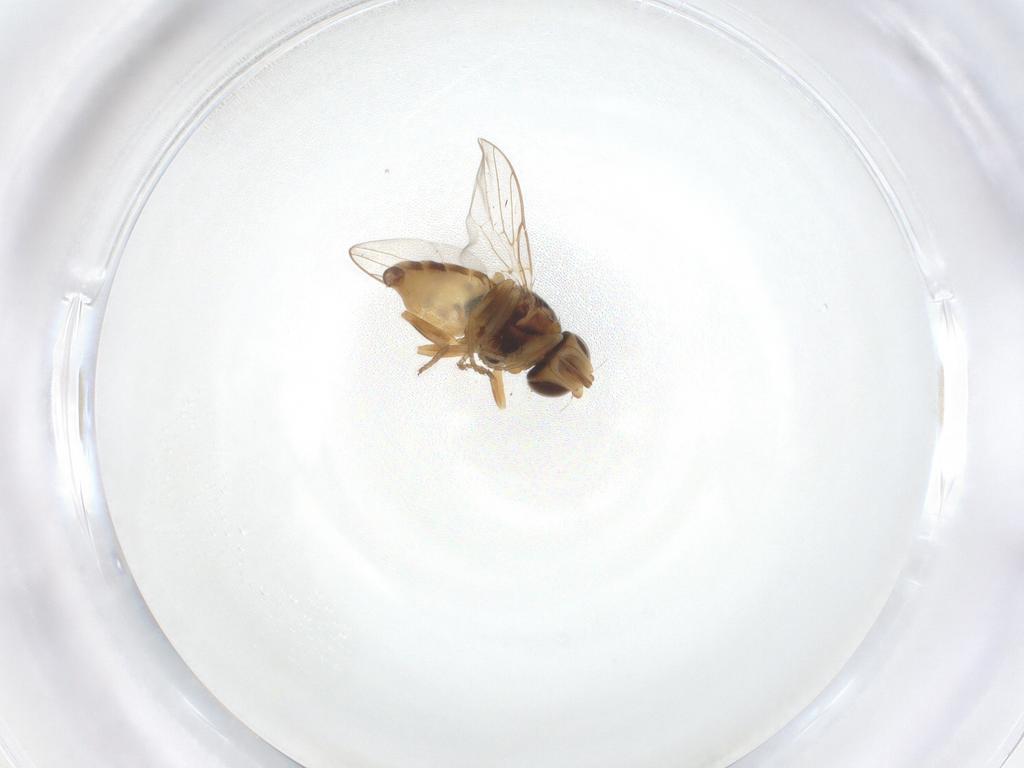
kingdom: Animalia
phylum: Arthropoda
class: Insecta
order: Diptera
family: Chloropidae
